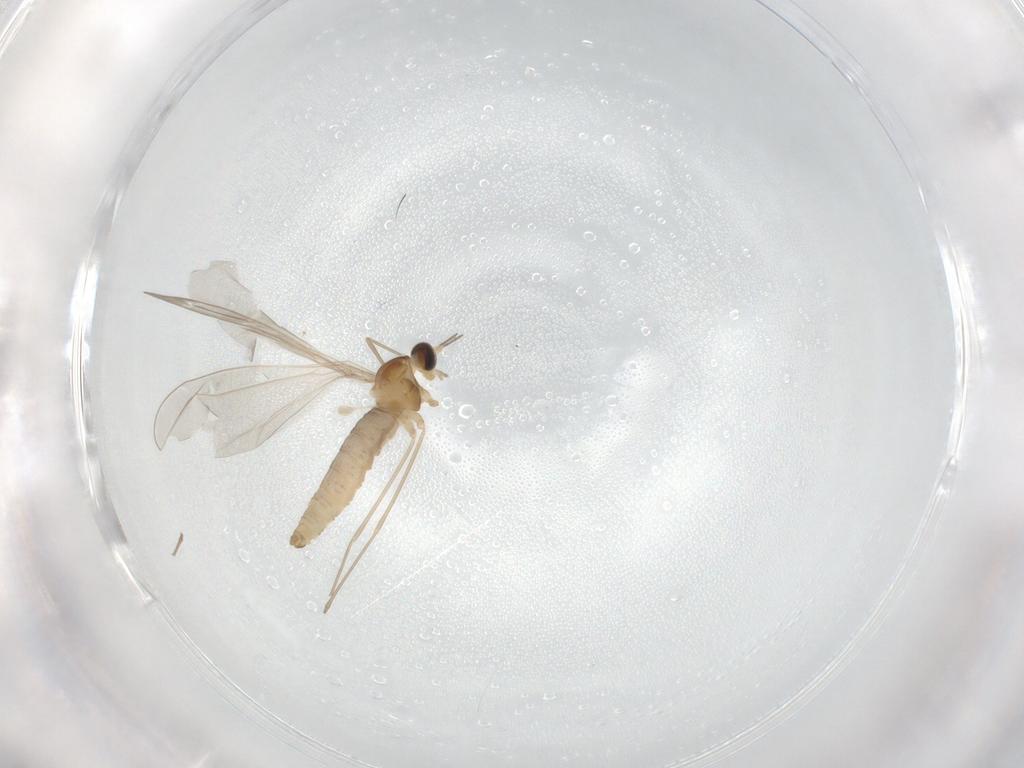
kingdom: Animalia
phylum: Arthropoda
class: Insecta
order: Diptera
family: Cecidomyiidae
